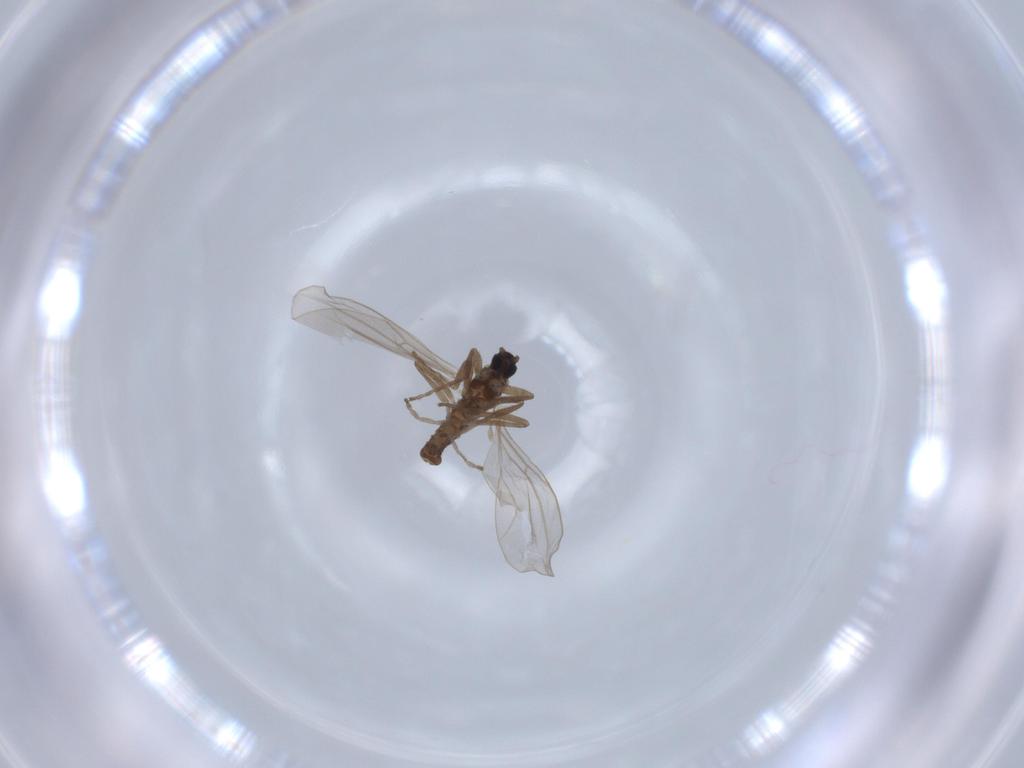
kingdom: Animalia
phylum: Arthropoda
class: Insecta
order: Diptera
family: Cecidomyiidae
